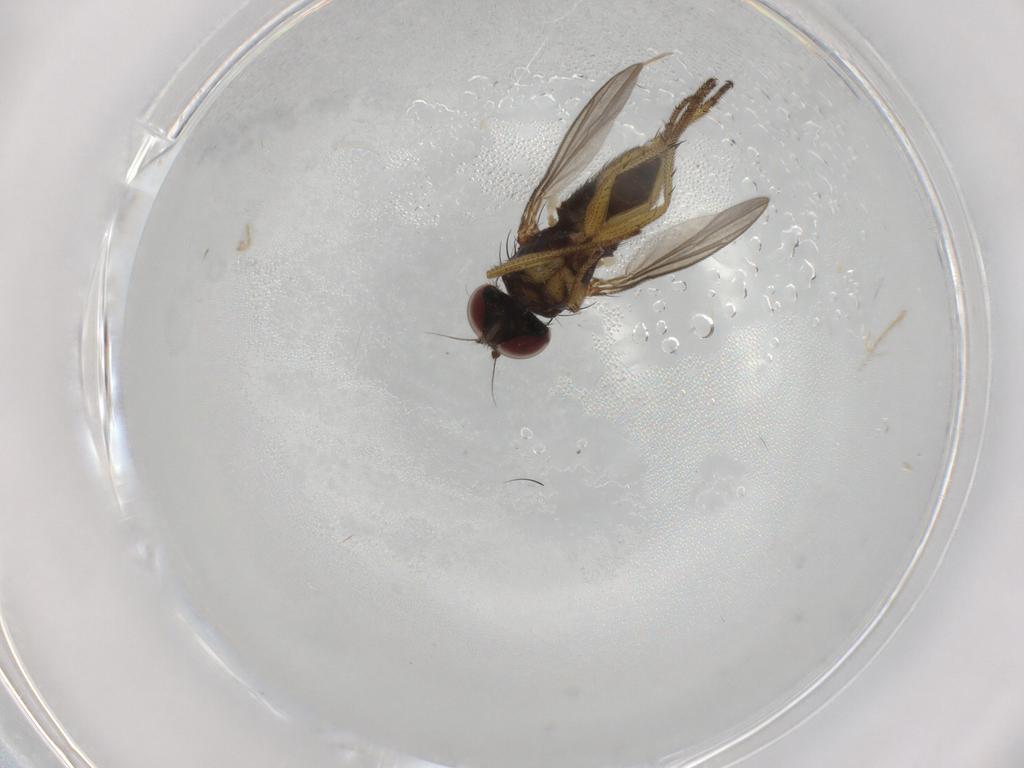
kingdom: Animalia
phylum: Arthropoda
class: Insecta
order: Diptera
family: Dolichopodidae
